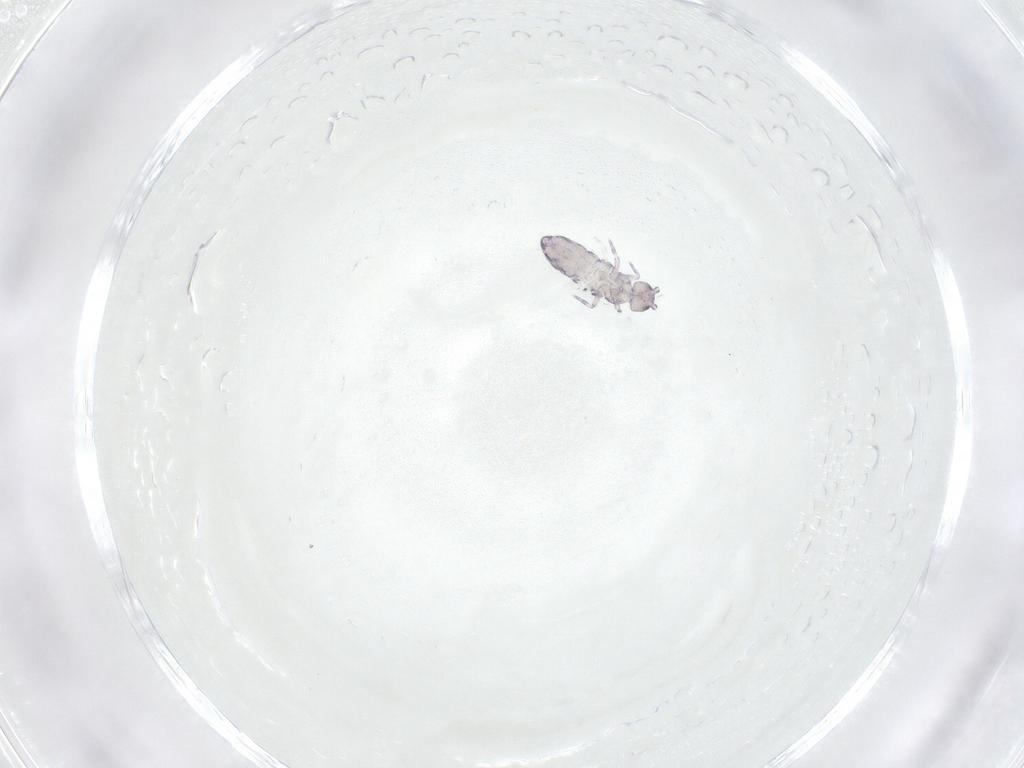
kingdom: Animalia
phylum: Arthropoda
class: Collembola
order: Entomobryomorpha
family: Entomobryidae
